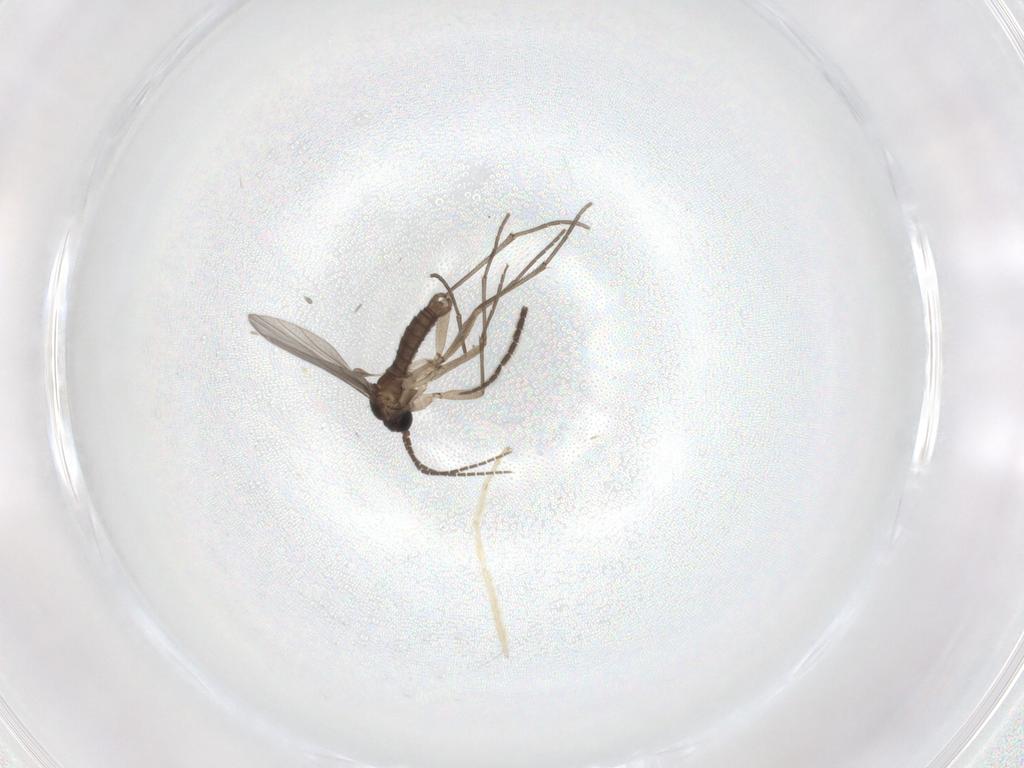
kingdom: Animalia
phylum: Arthropoda
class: Insecta
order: Diptera
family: Sciaridae
